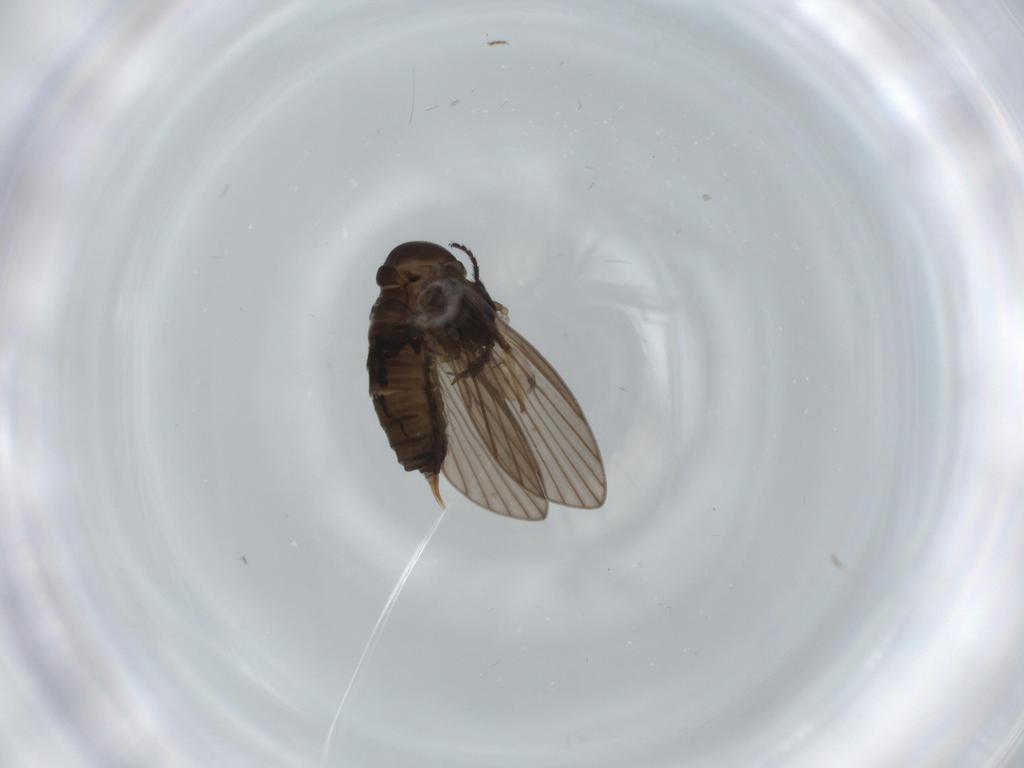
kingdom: Animalia
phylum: Arthropoda
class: Insecta
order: Diptera
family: Psychodidae
